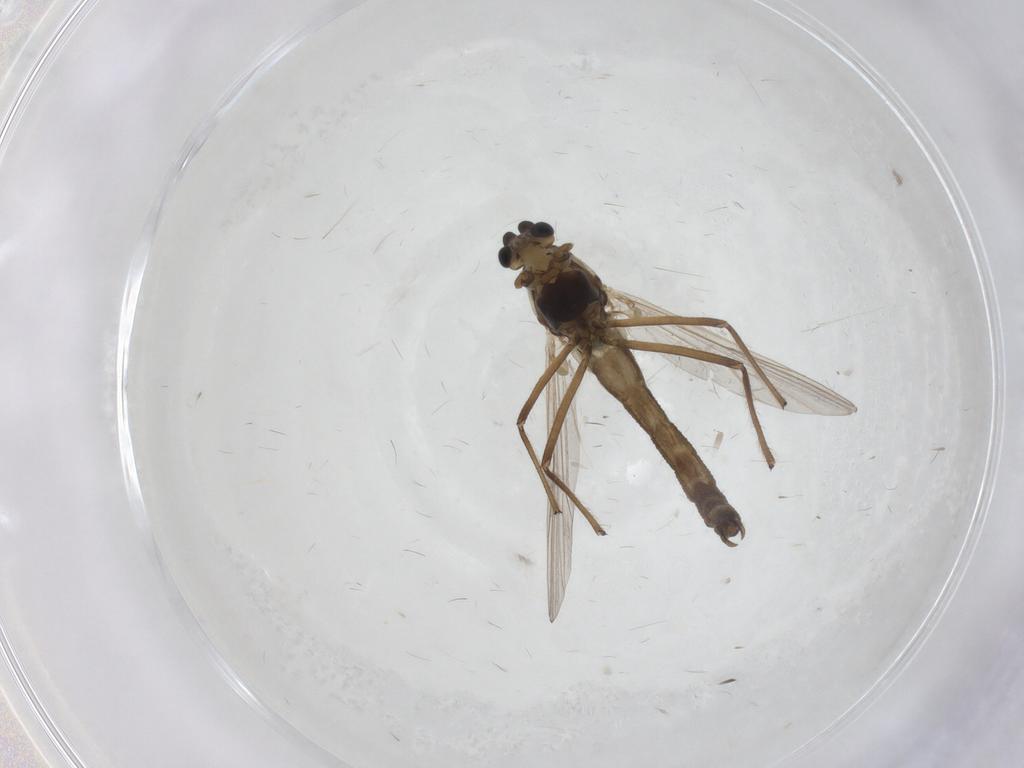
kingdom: Animalia
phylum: Arthropoda
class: Insecta
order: Diptera
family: Chironomidae
